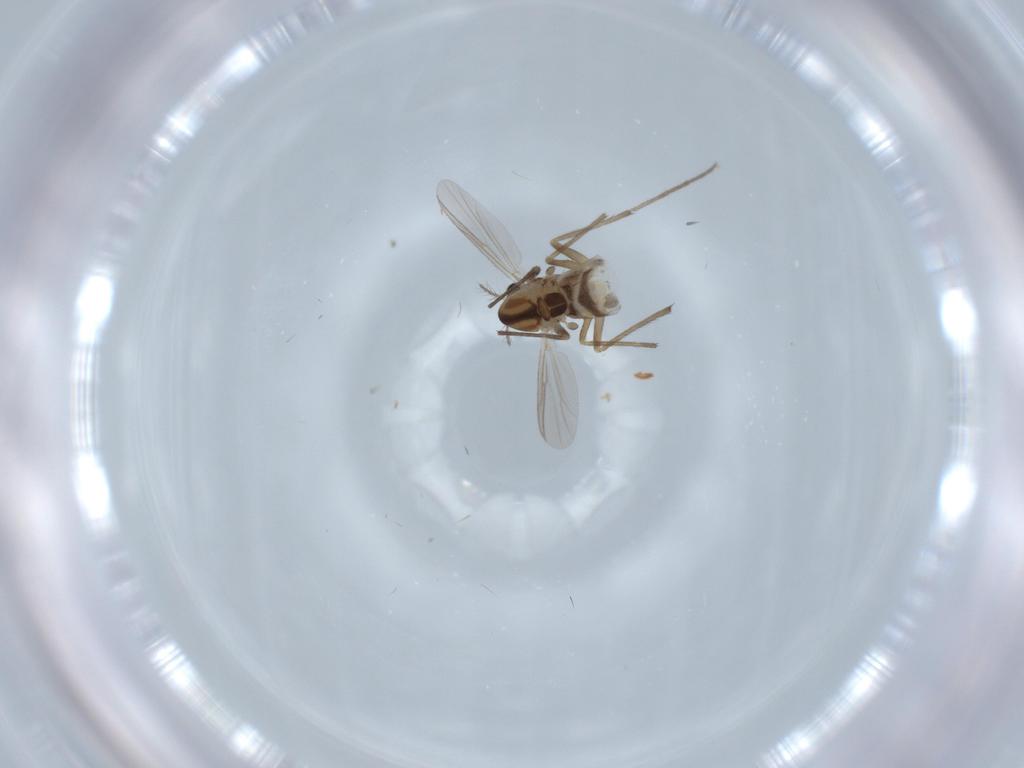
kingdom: Animalia
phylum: Arthropoda
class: Insecta
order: Diptera
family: Chironomidae
